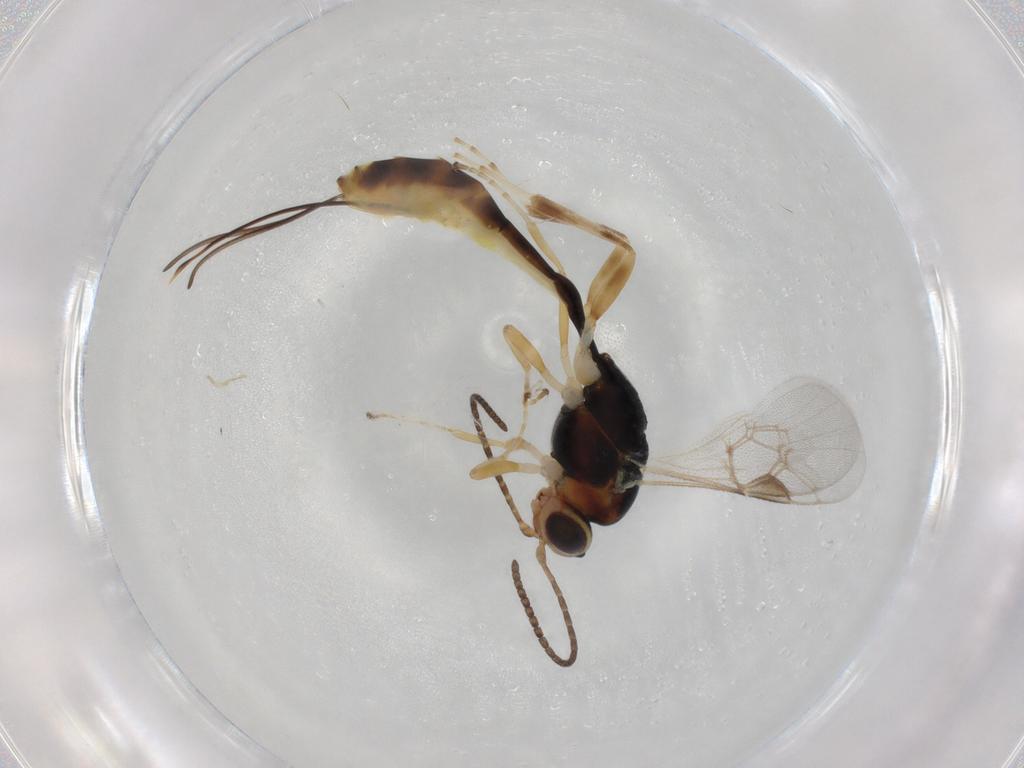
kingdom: Animalia
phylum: Arthropoda
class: Insecta
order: Hymenoptera
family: Ichneumonidae
